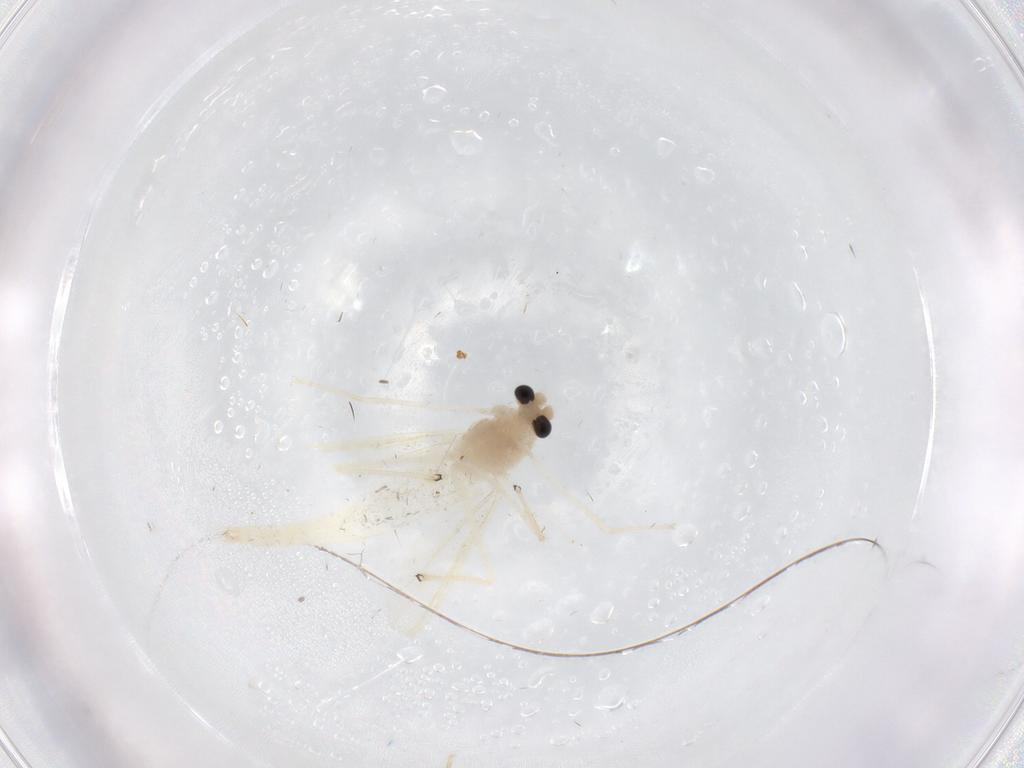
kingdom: Animalia
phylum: Arthropoda
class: Insecta
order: Diptera
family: Chironomidae
